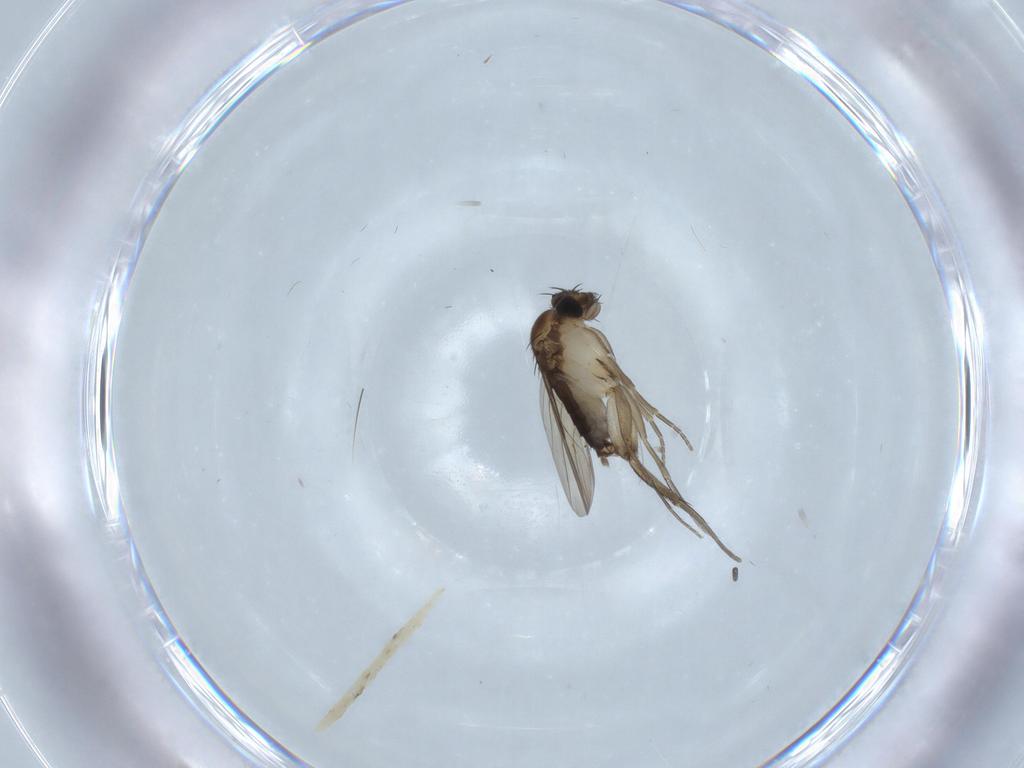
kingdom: Animalia
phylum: Arthropoda
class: Insecta
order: Diptera
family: Phoridae
